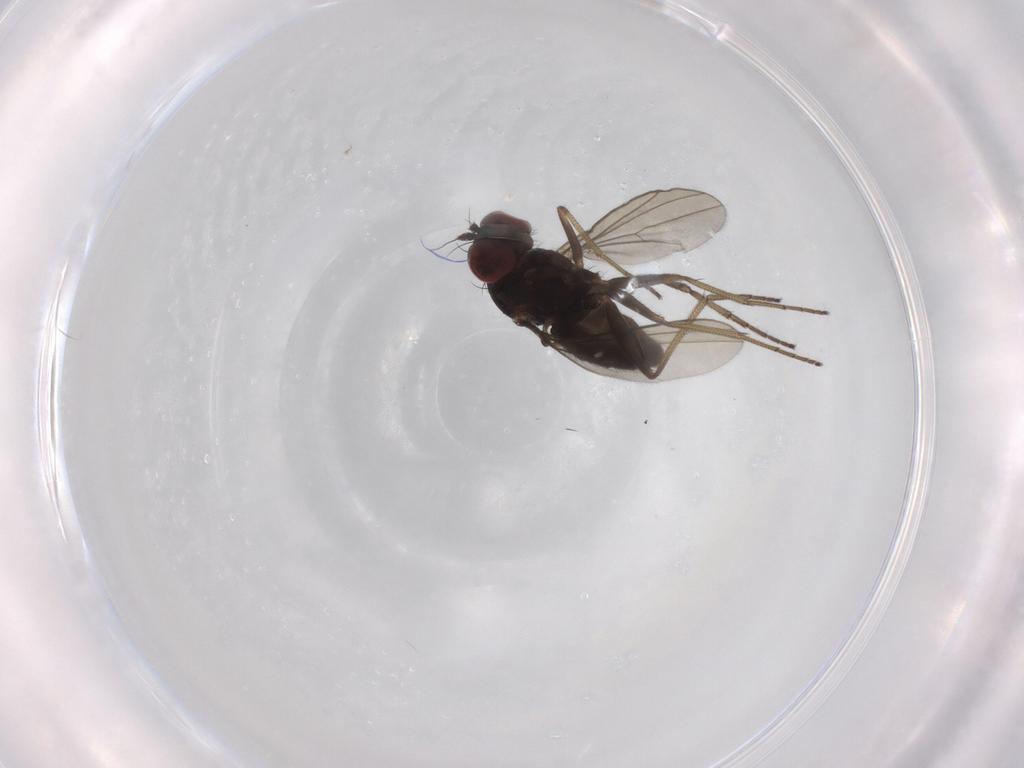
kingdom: Animalia
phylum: Arthropoda
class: Insecta
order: Diptera
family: Dolichopodidae
